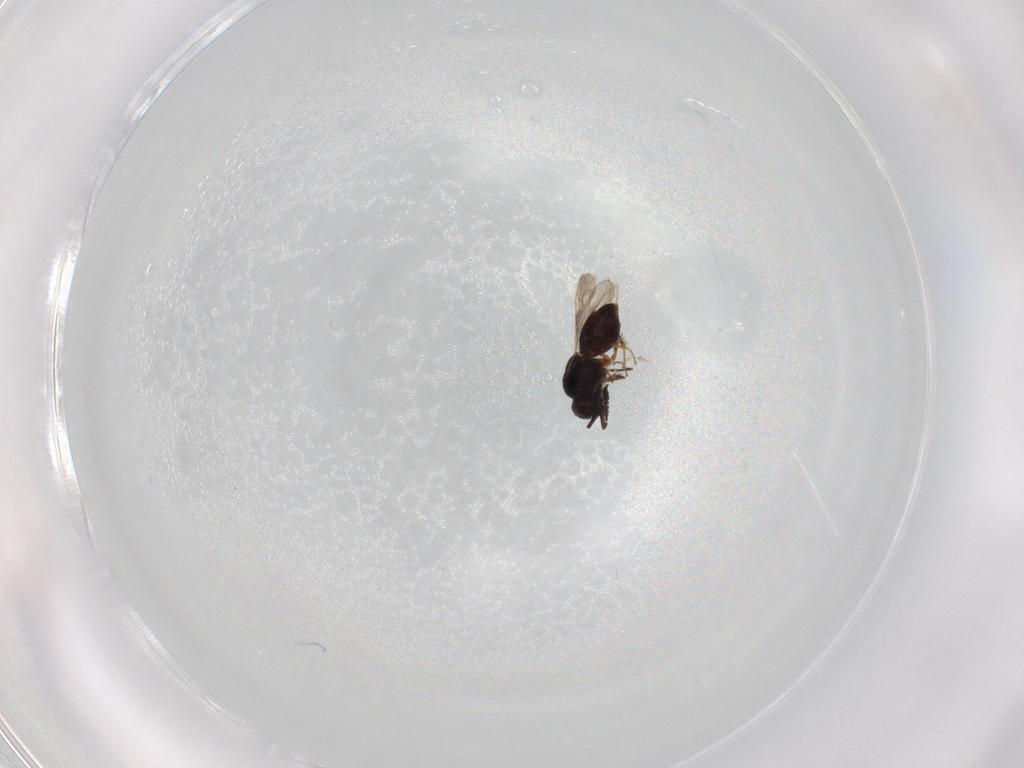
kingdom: Animalia
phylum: Arthropoda
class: Insecta
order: Hymenoptera
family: Ceraphronidae
